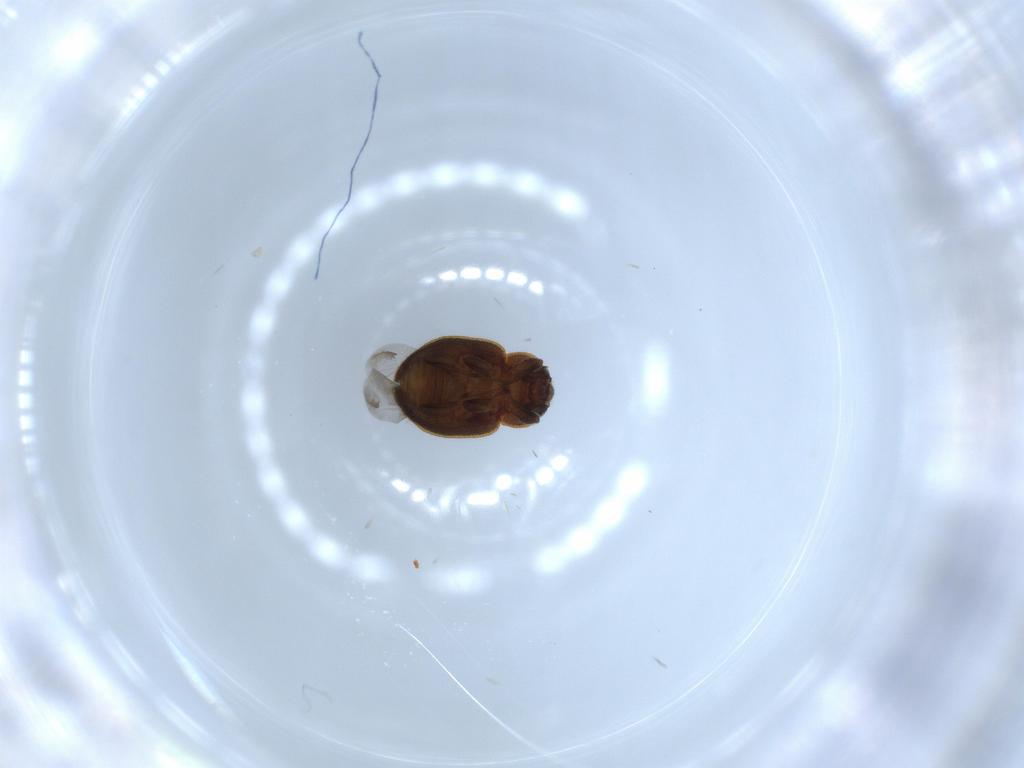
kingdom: Animalia
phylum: Arthropoda
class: Insecta
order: Coleoptera
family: Coccinellidae
